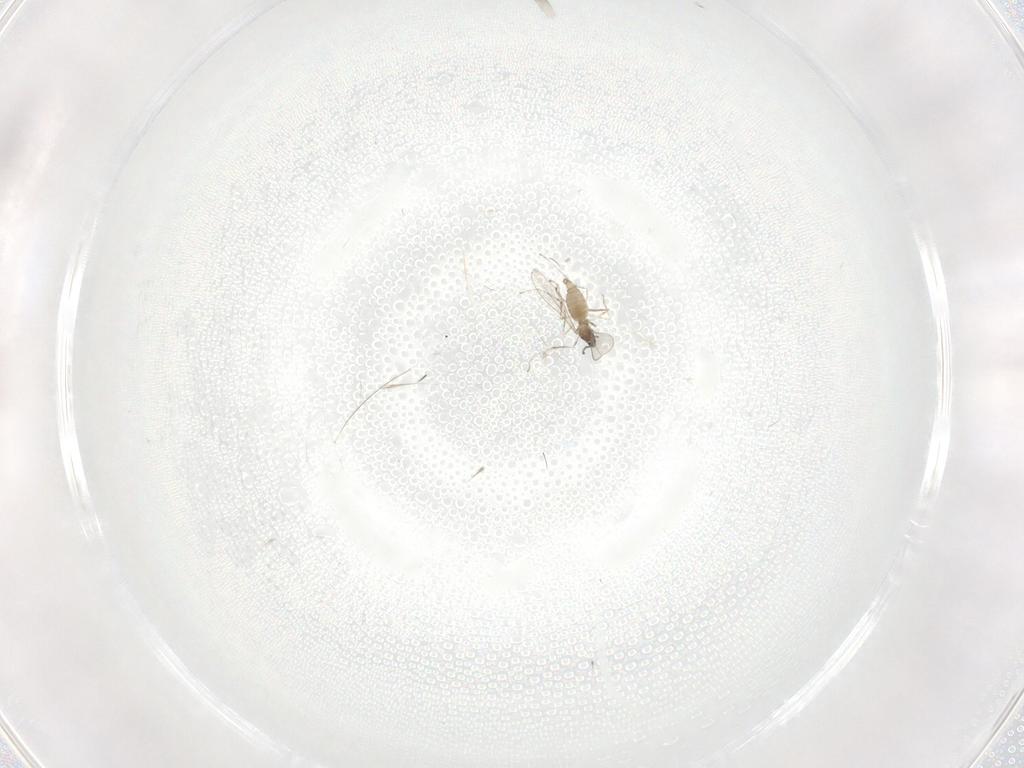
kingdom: Animalia
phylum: Arthropoda
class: Insecta
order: Diptera
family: Cecidomyiidae
